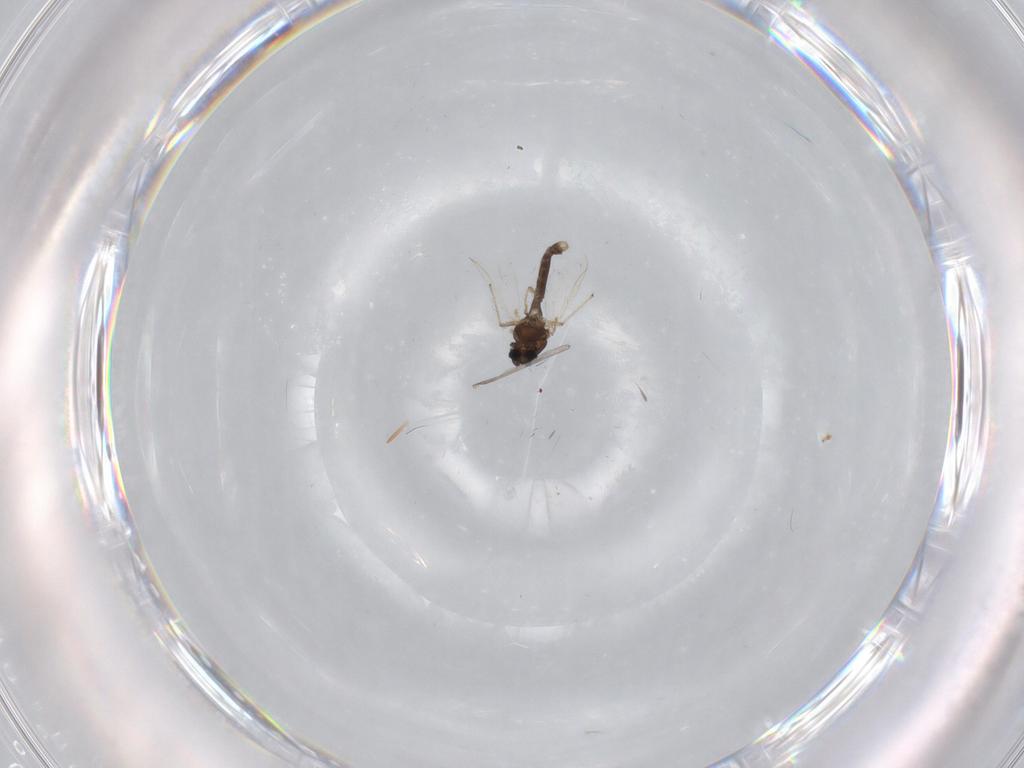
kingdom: Animalia
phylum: Arthropoda
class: Insecta
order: Diptera
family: Chironomidae
